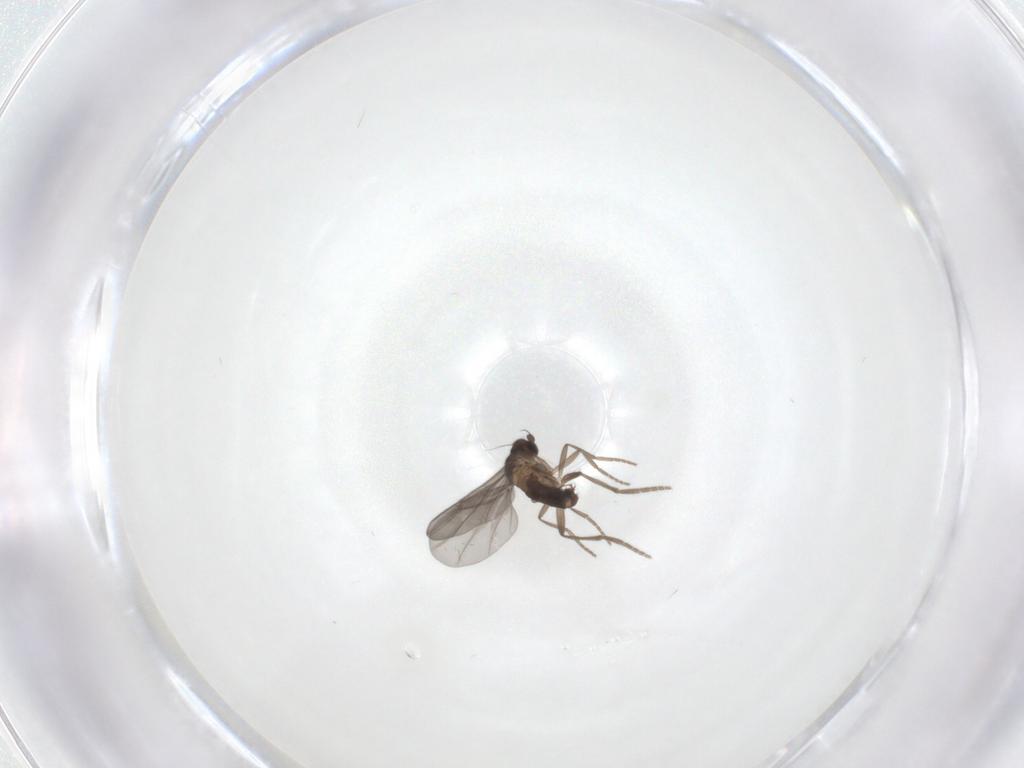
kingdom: Animalia
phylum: Arthropoda
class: Insecta
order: Diptera
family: Phoridae
